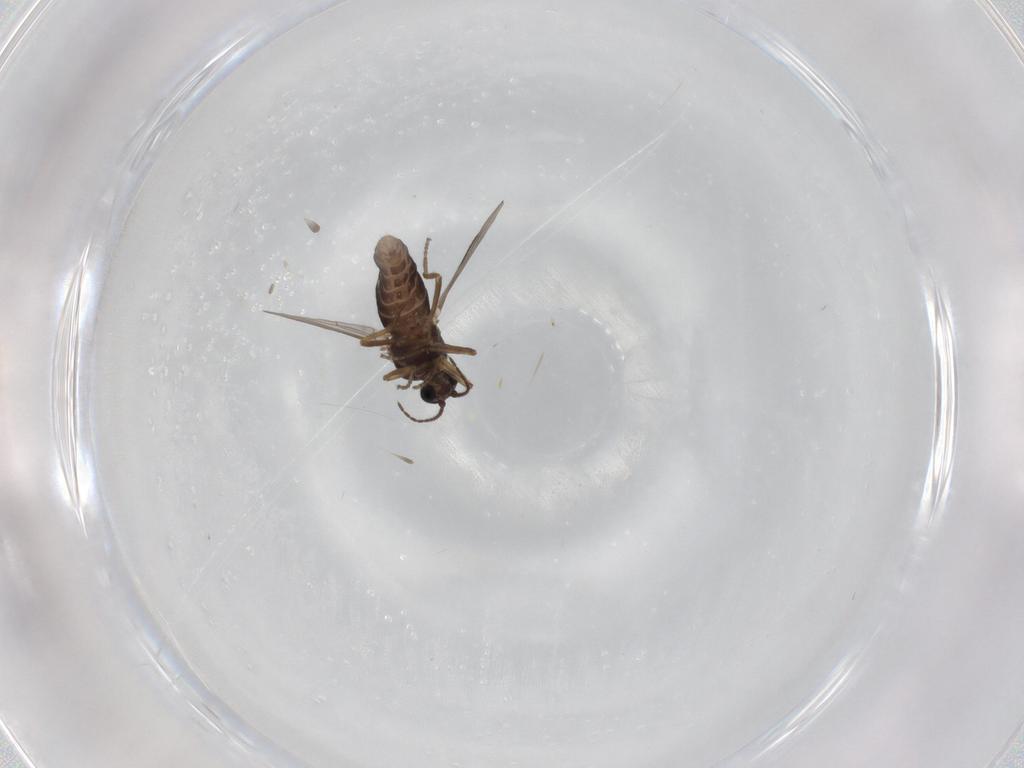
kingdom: Animalia
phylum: Arthropoda
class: Insecta
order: Diptera
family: Ceratopogonidae
